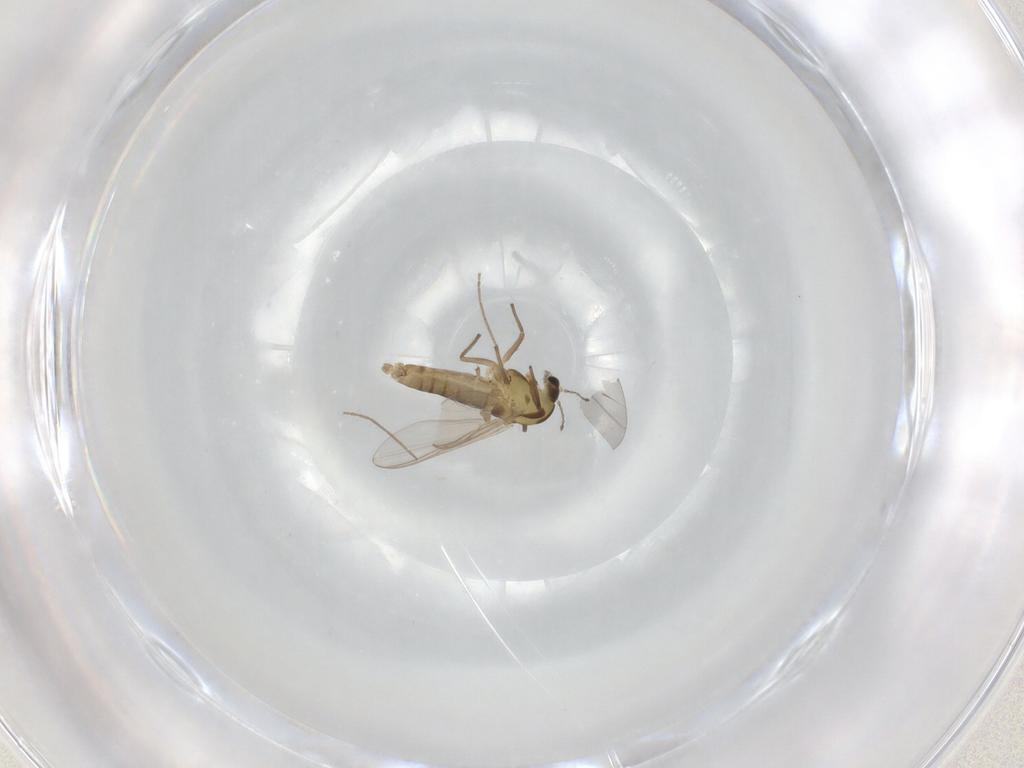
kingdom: Animalia
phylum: Arthropoda
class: Insecta
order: Diptera
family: Chironomidae
